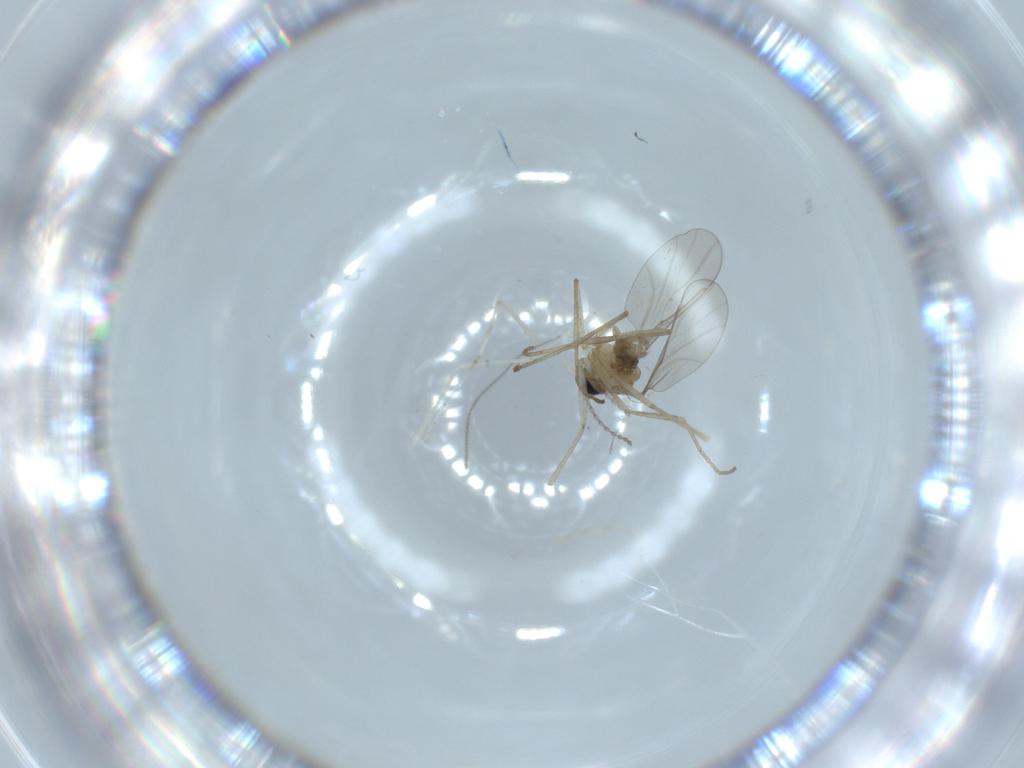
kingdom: Animalia
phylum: Arthropoda
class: Insecta
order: Diptera
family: Cecidomyiidae
